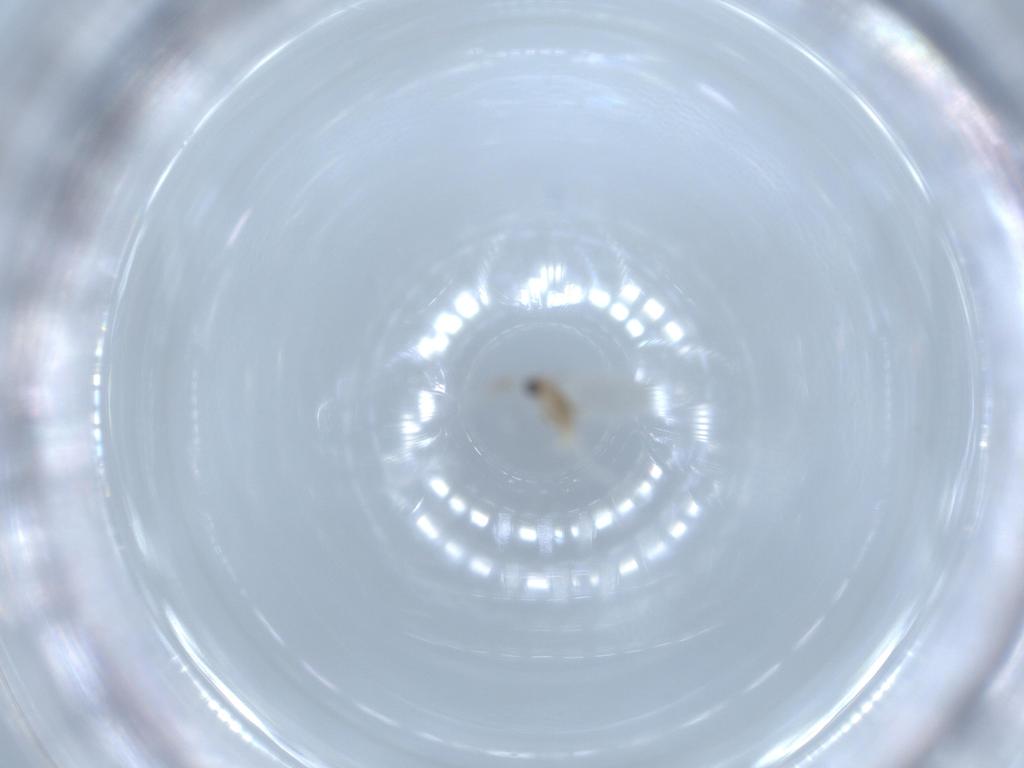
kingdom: Animalia
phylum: Arthropoda
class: Insecta
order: Diptera
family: Cecidomyiidae
